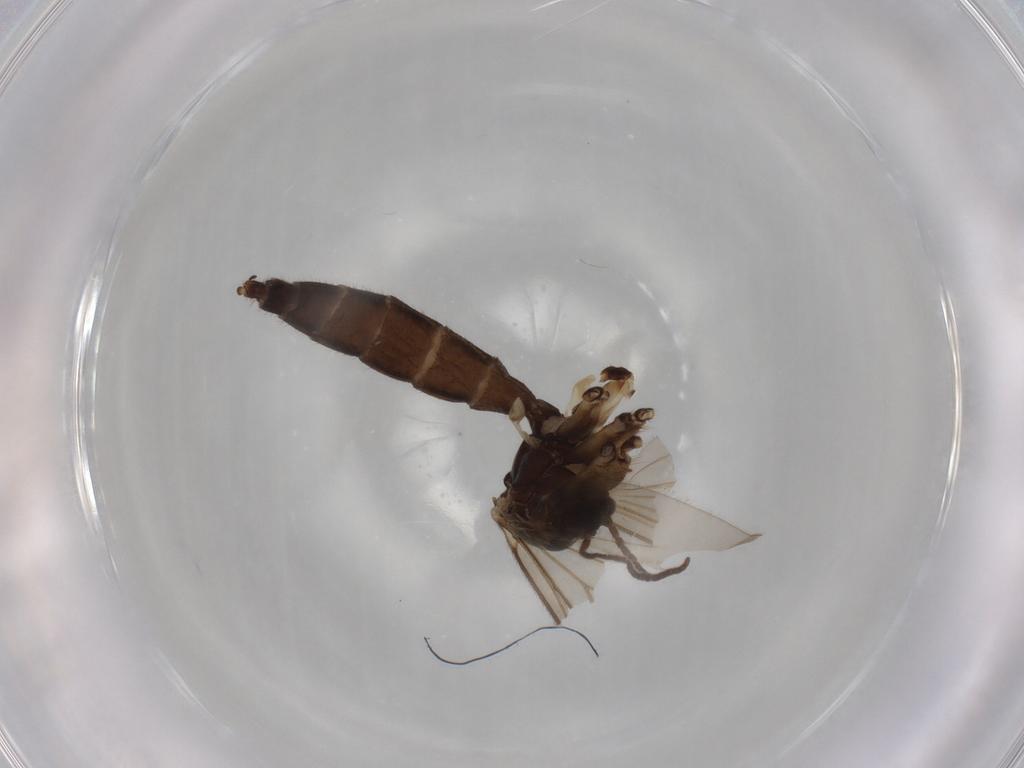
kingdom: Animalia
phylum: Arthropoda
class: Insecta
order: Diptera
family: Mycetophilidae
